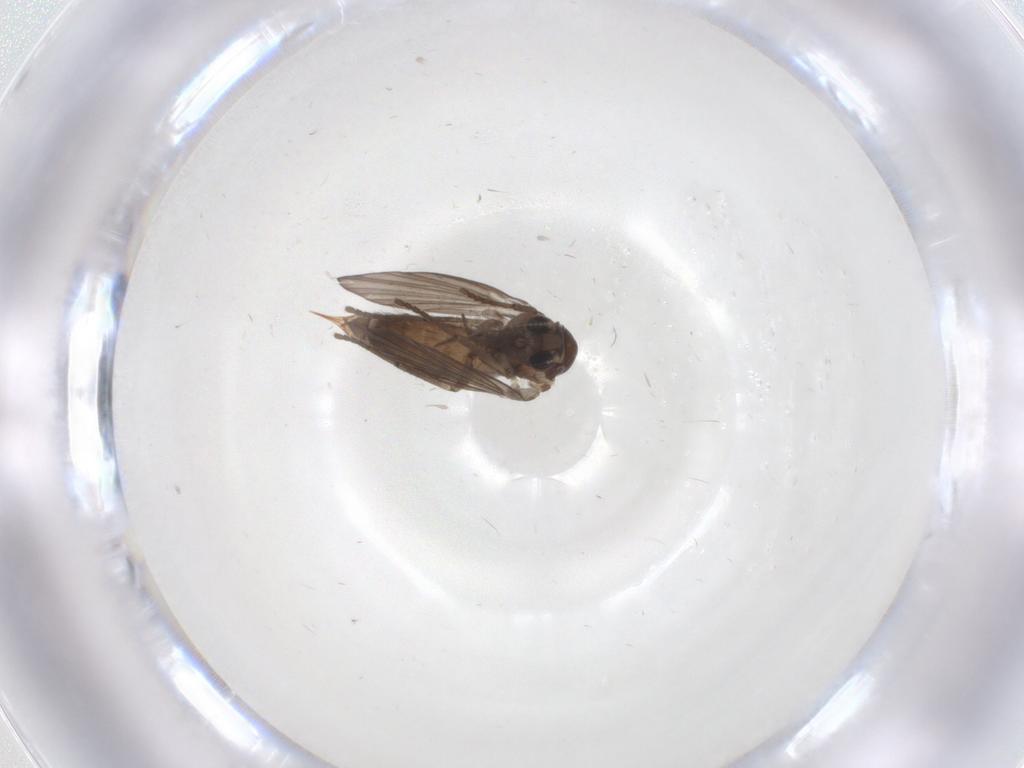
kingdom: Animalia
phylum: Arthropoda
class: Insecta
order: Diptera
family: Psychodidae
